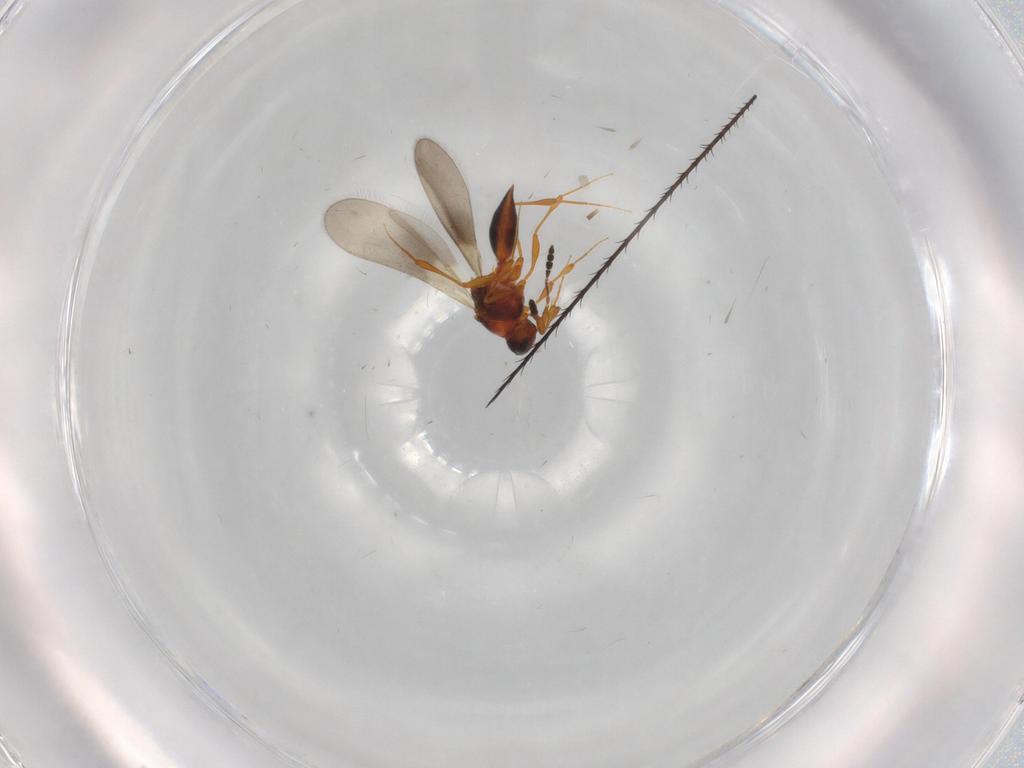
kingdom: Animalia
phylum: Arthropoda
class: Insecta
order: Hymenoptera
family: Platygastridae
